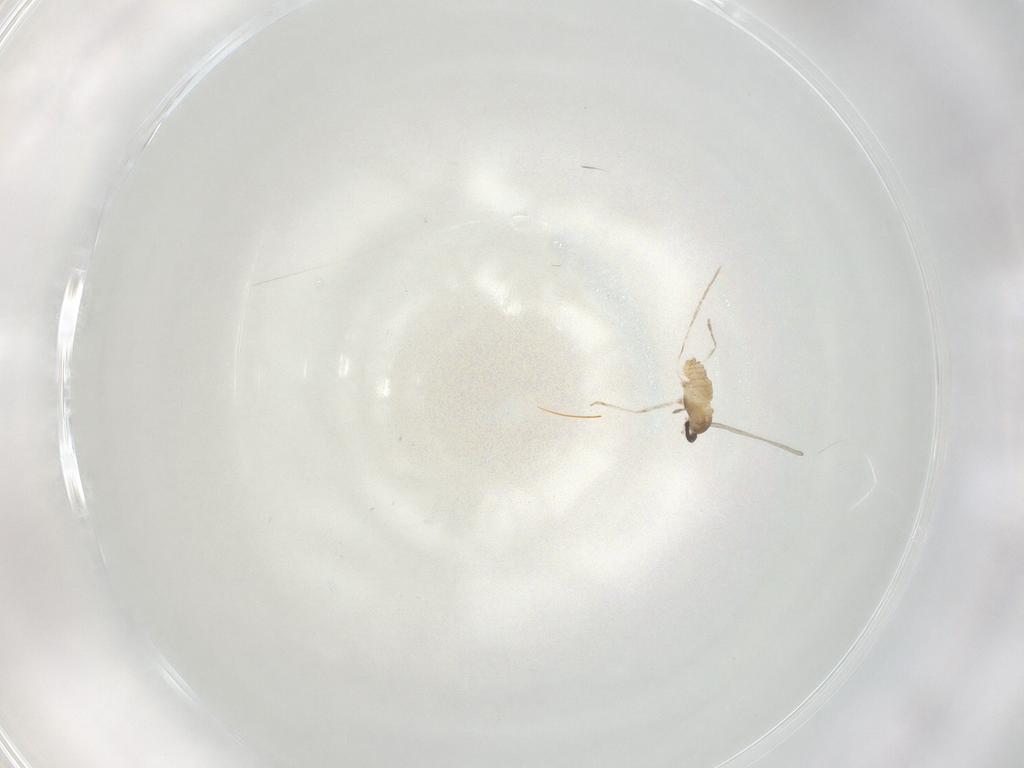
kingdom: Animalia
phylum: Arthropoda
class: Insecta
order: Diptera
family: Cecidomyiidae
